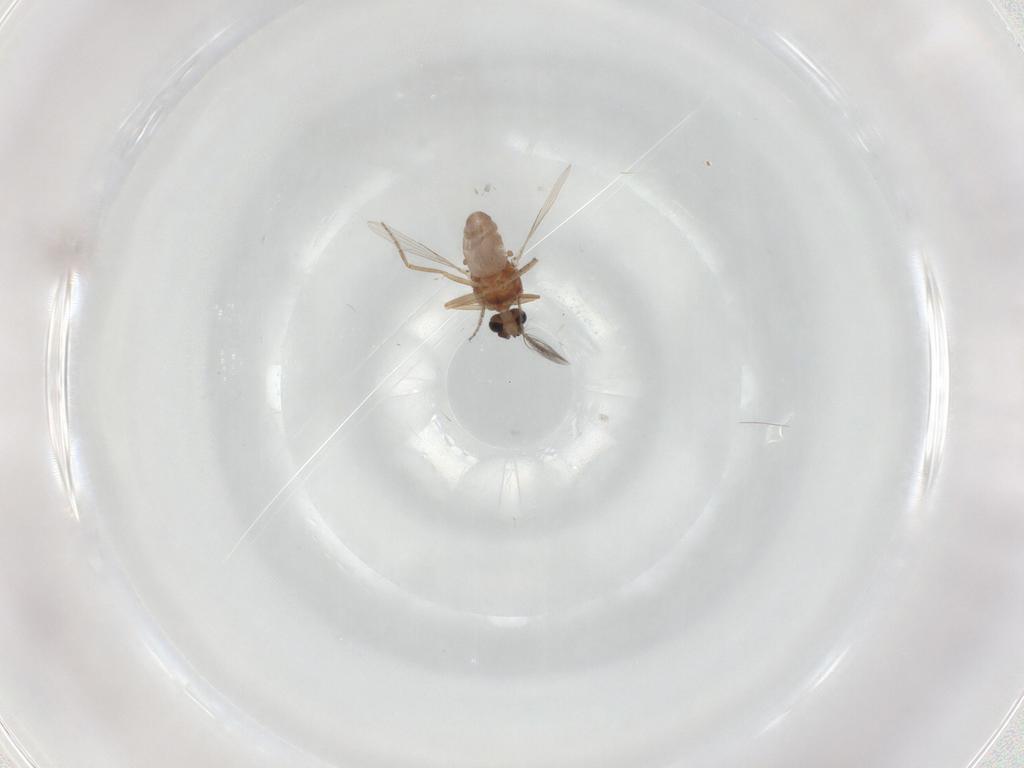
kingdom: Animalia
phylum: Arthropoda
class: Insecta
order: Diptera
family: Ceratopogonidae
